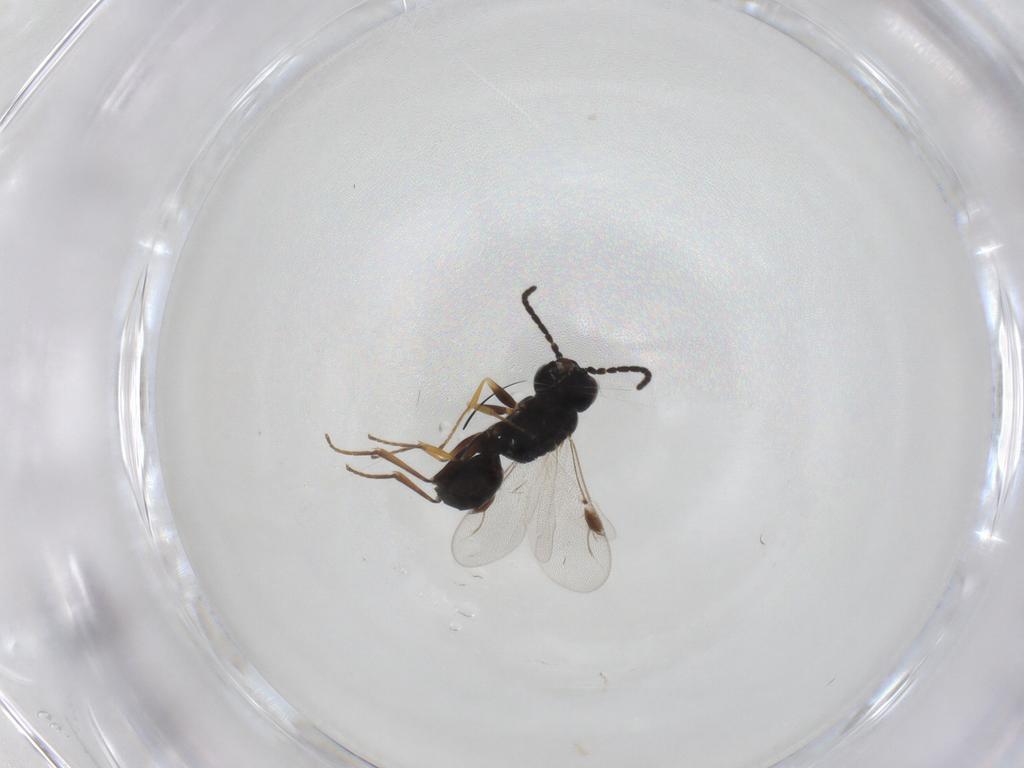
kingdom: Animalia
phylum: Arthropoda
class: Insecta
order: Hymenoptera
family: Dryinidae
